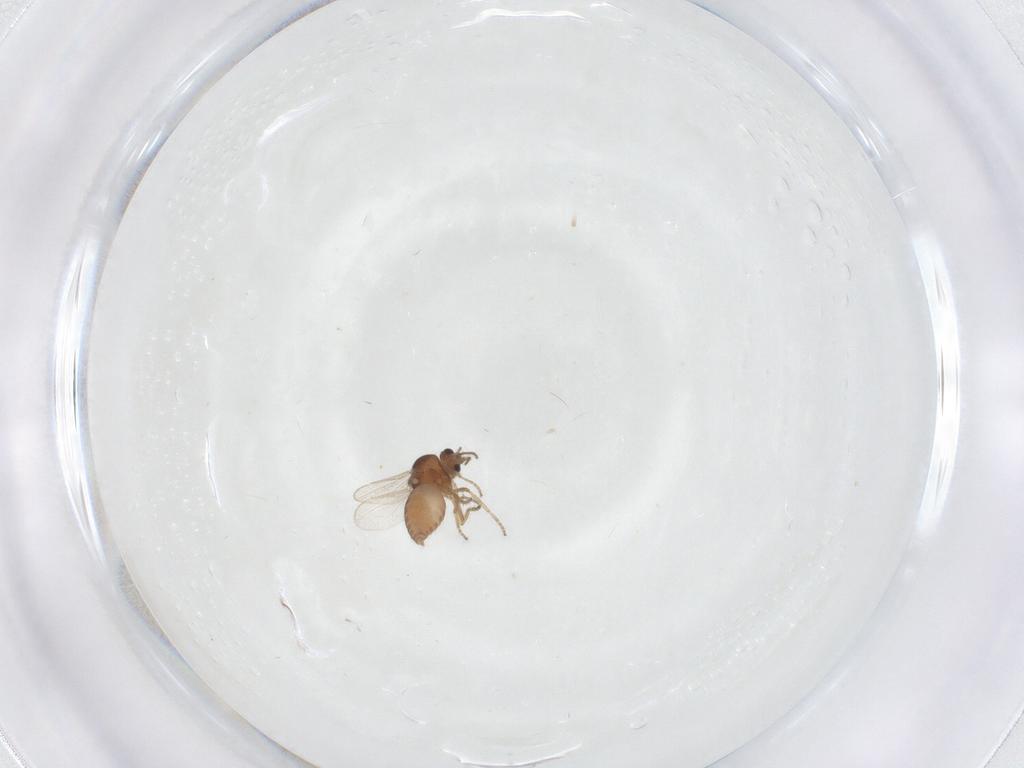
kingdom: Animalia
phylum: Arthropoda
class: Insecta
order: Diptera
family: Ceratopogonidae
